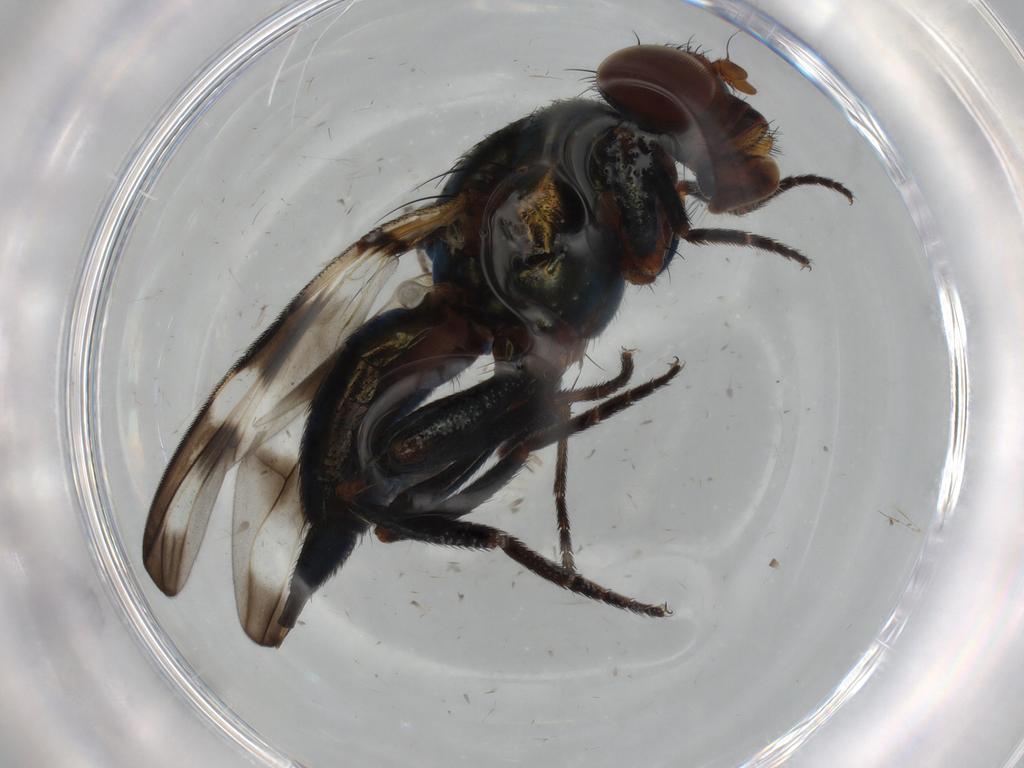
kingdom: Animalia
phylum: Arthropoda
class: Insecta
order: Diptera
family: Ulidiidae
